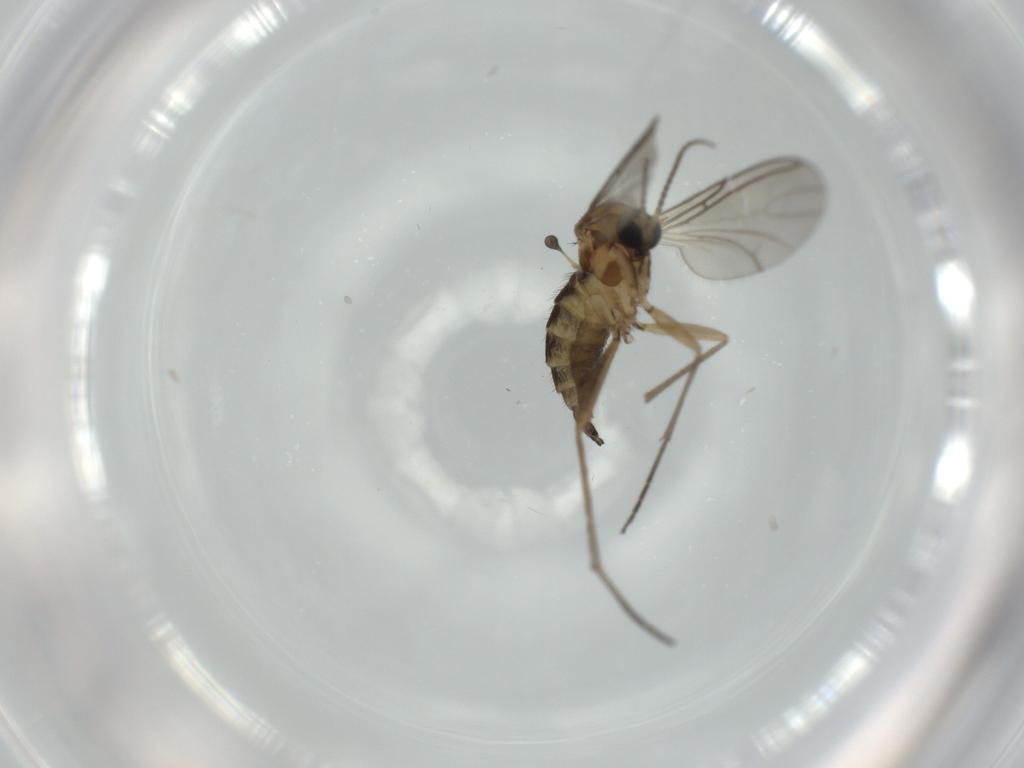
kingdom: Animalia
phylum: Arthropoda
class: Insecta
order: Diptera
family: Sciaridae
